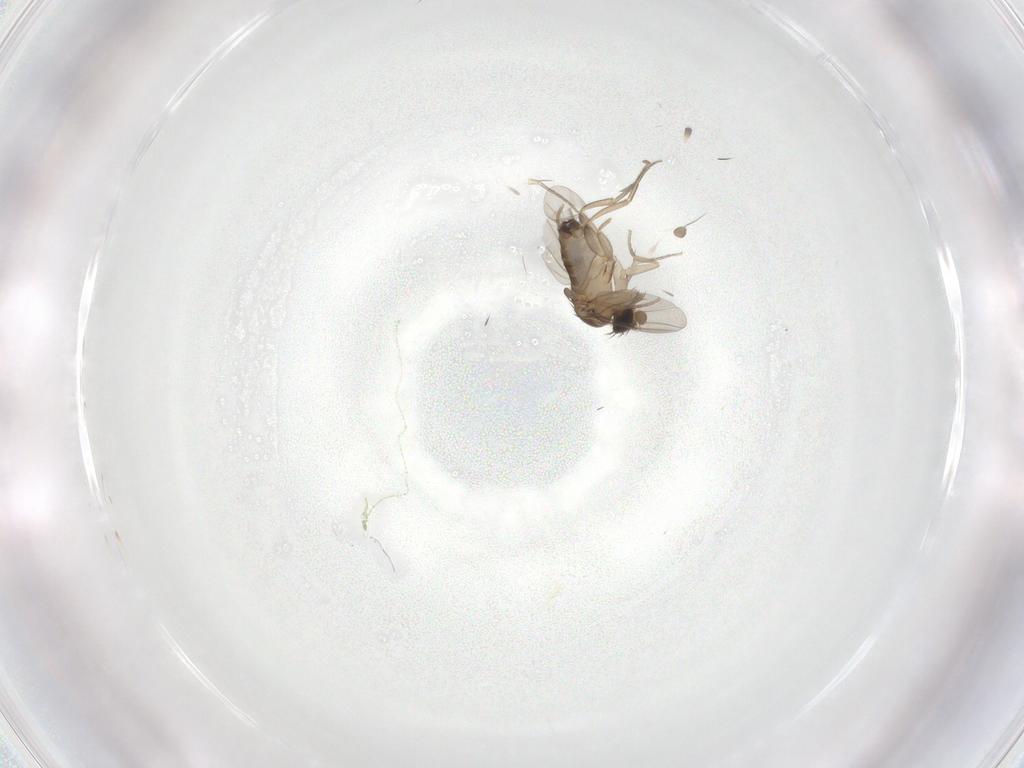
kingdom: Animalia
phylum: Arthropoda
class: Insecta
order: Diptera
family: Phoridae
